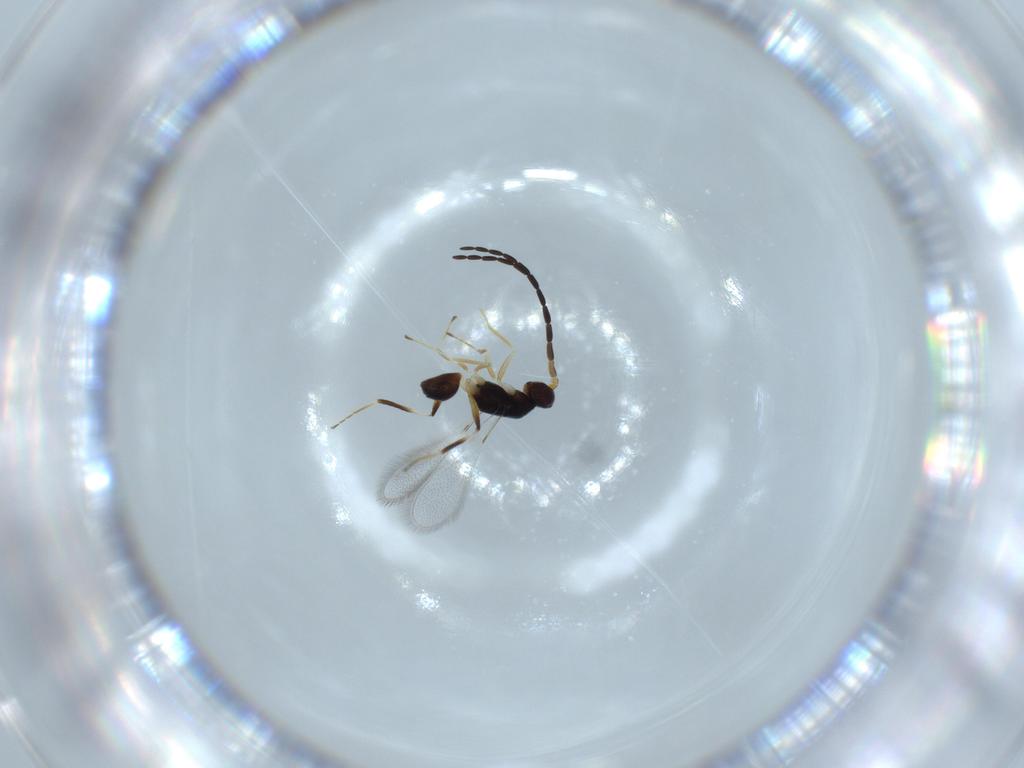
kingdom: Animalia
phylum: Arthropoda
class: Insecta
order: Hymenoptera
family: Mymaridae
